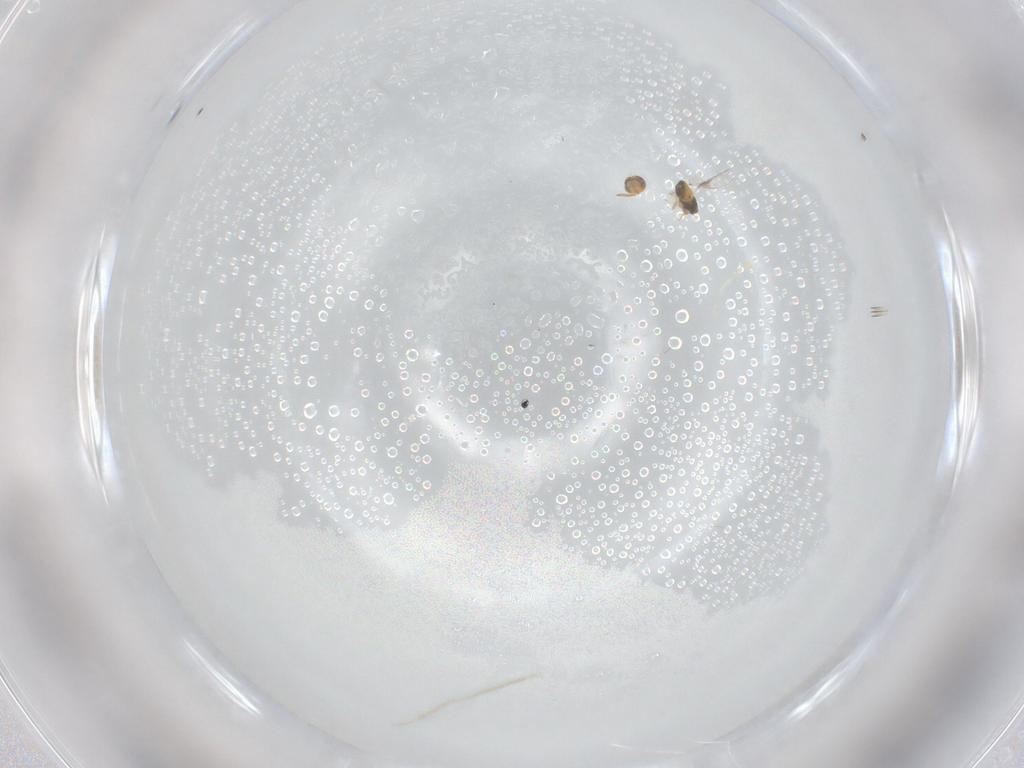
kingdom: Animalia
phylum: Arthropoda
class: Insecta
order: Hymenoptera
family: Aphelinidae
